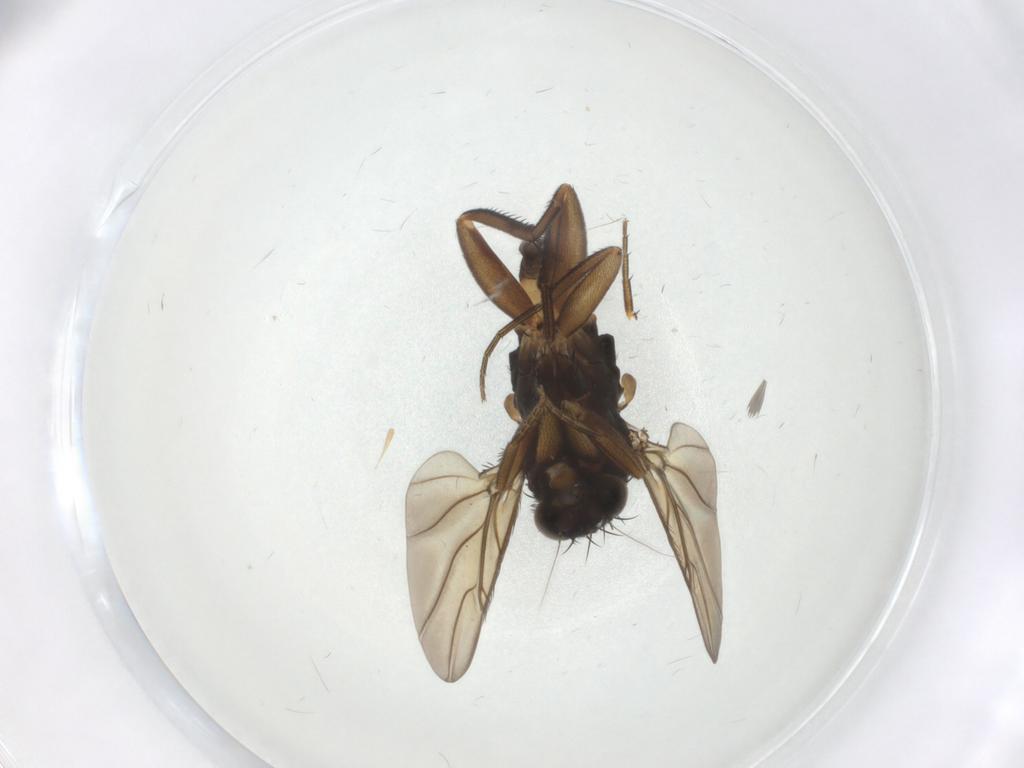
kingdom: Animalia
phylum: Arthropoda
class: Insecta
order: Diptera
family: Phoridae
